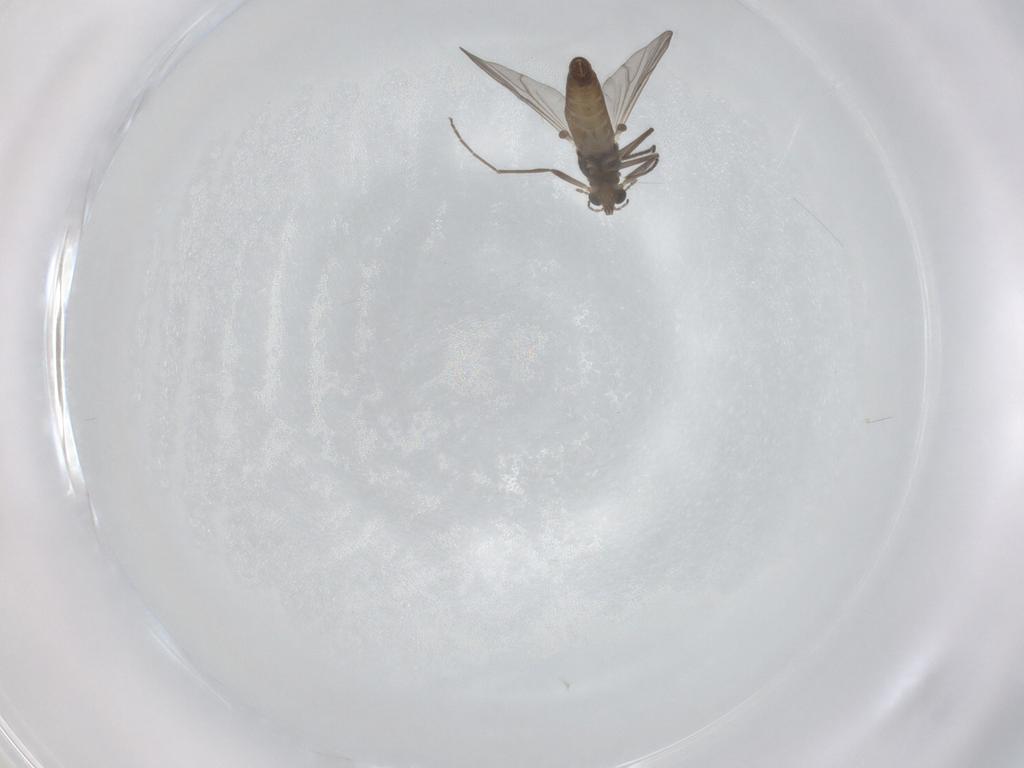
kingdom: Animalia
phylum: Arthropoda
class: Insecta
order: Diptera
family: Chironomidae
